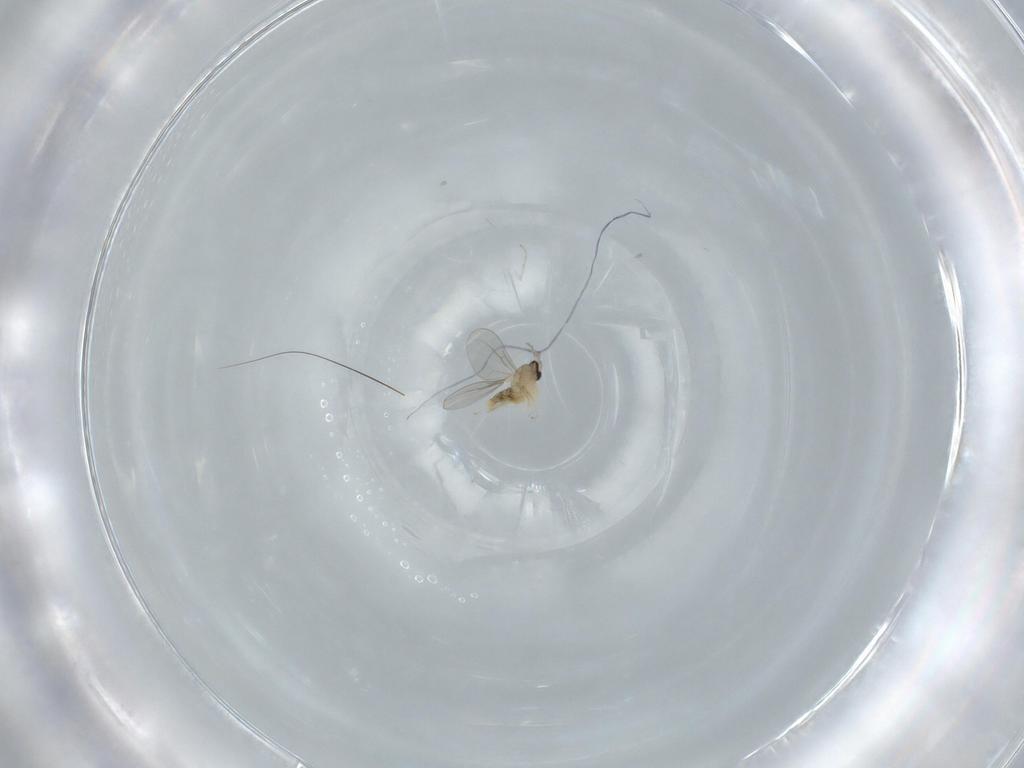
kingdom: Animalia
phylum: Arthropoda
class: Insecta
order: Diptera
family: Cecidomyiidae
